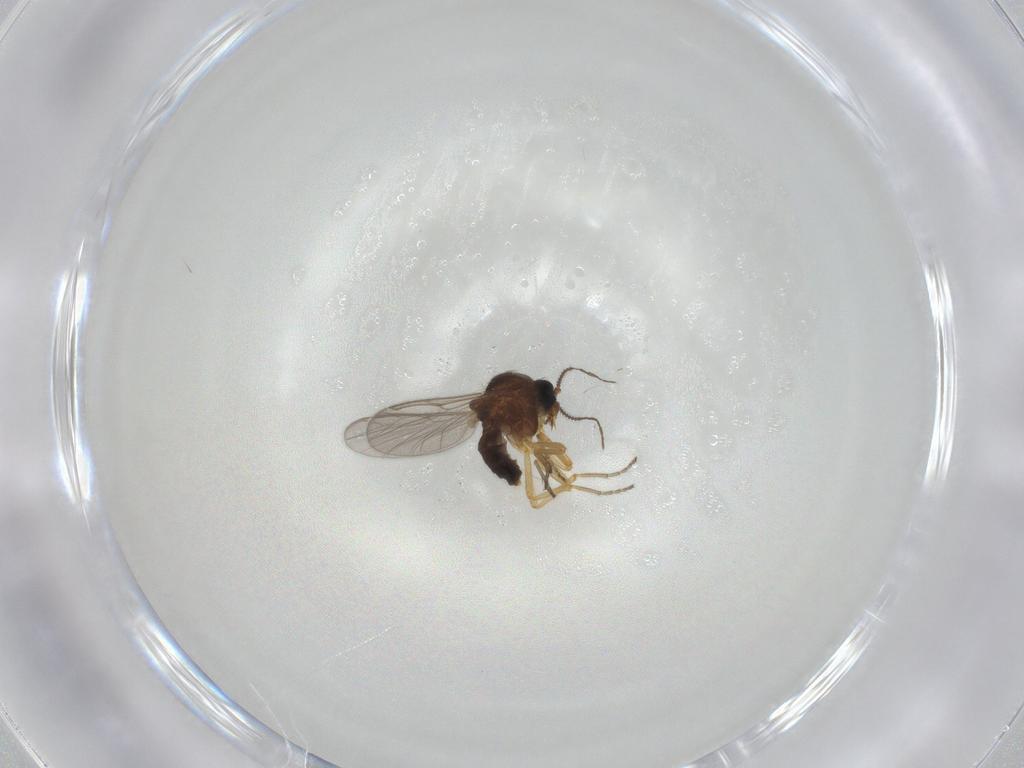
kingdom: Animalia
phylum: Arthropoda
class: Insecta
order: Diptera
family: Ceratopogonidae
